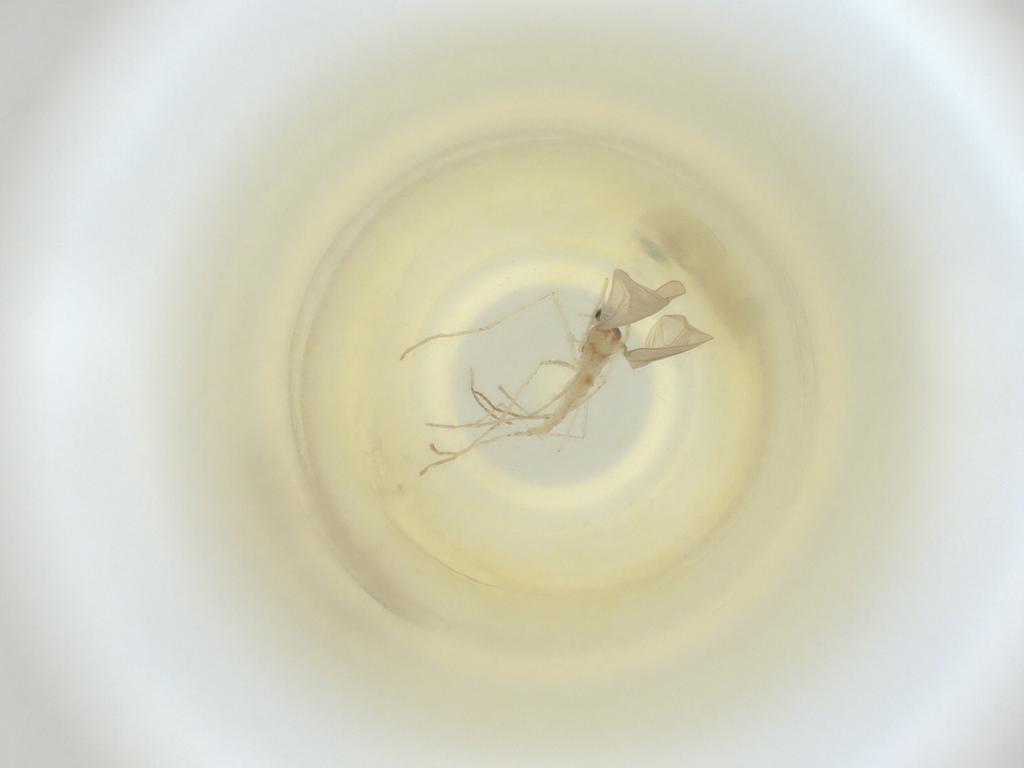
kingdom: Animalia
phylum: Arthropoda
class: Insecta
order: Diptera
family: Cecidomyiidae
